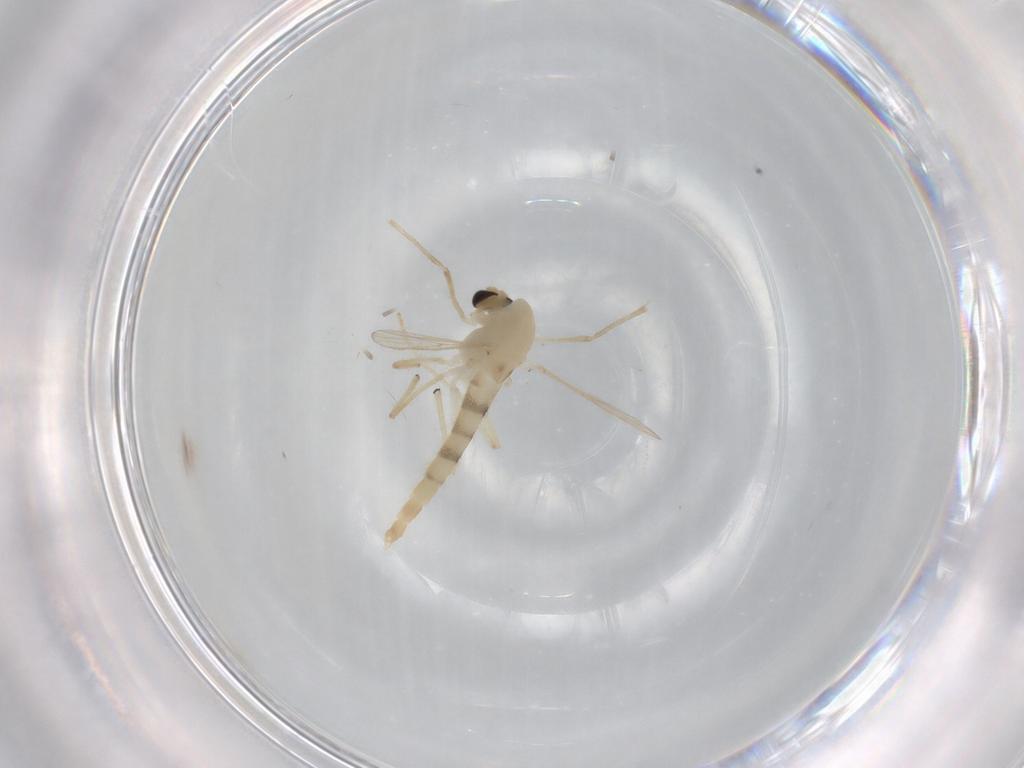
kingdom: Animalia
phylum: Arthropoda
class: Insecta
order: Diptera
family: Chironomidae
